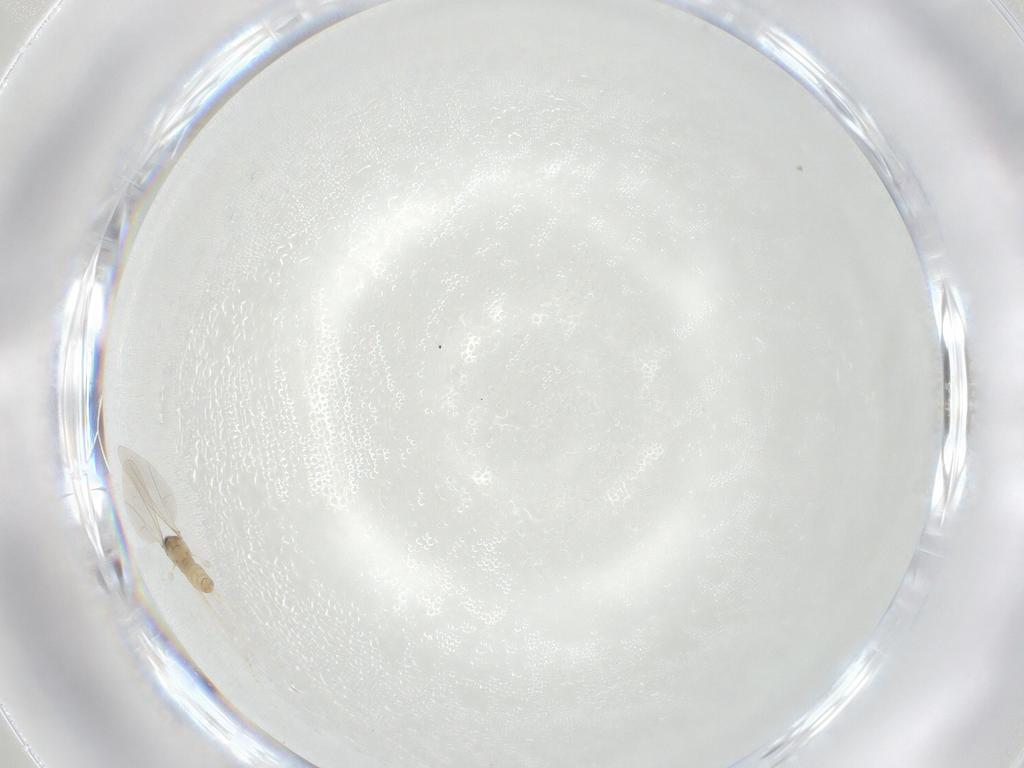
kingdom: Animalia
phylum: Arthropoda
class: Insecta
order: Diptera
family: Cecidomyiidae
